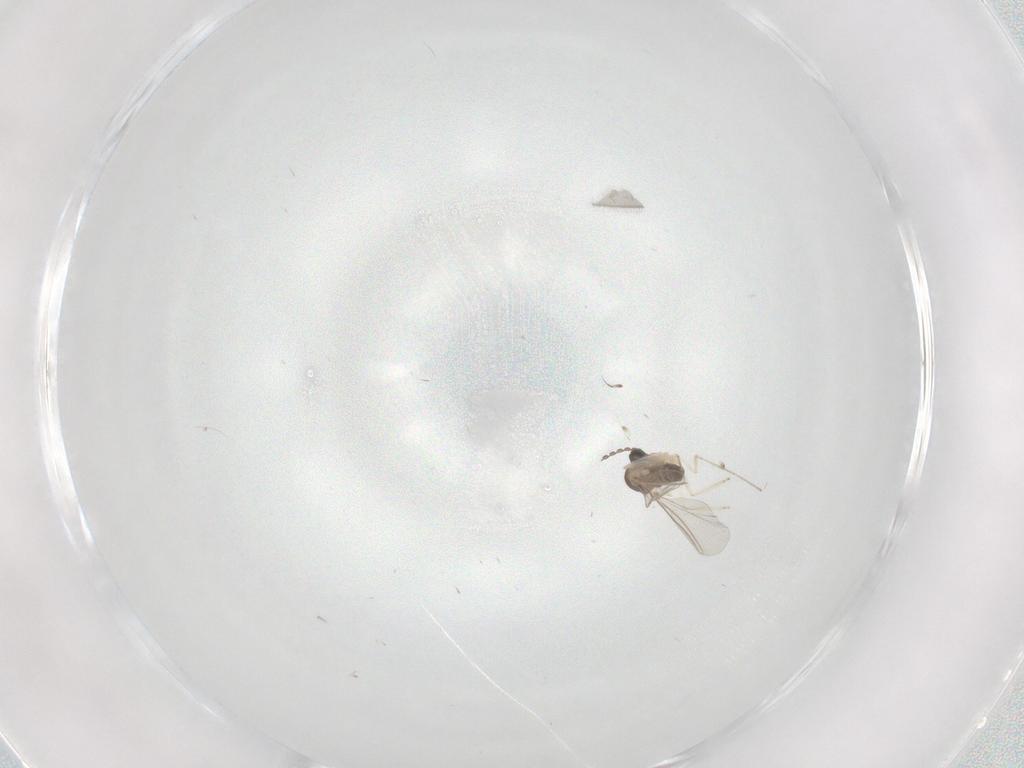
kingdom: Animalia
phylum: Arthropoda
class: Insecta
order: Diptera
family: Cecidomyiidae
